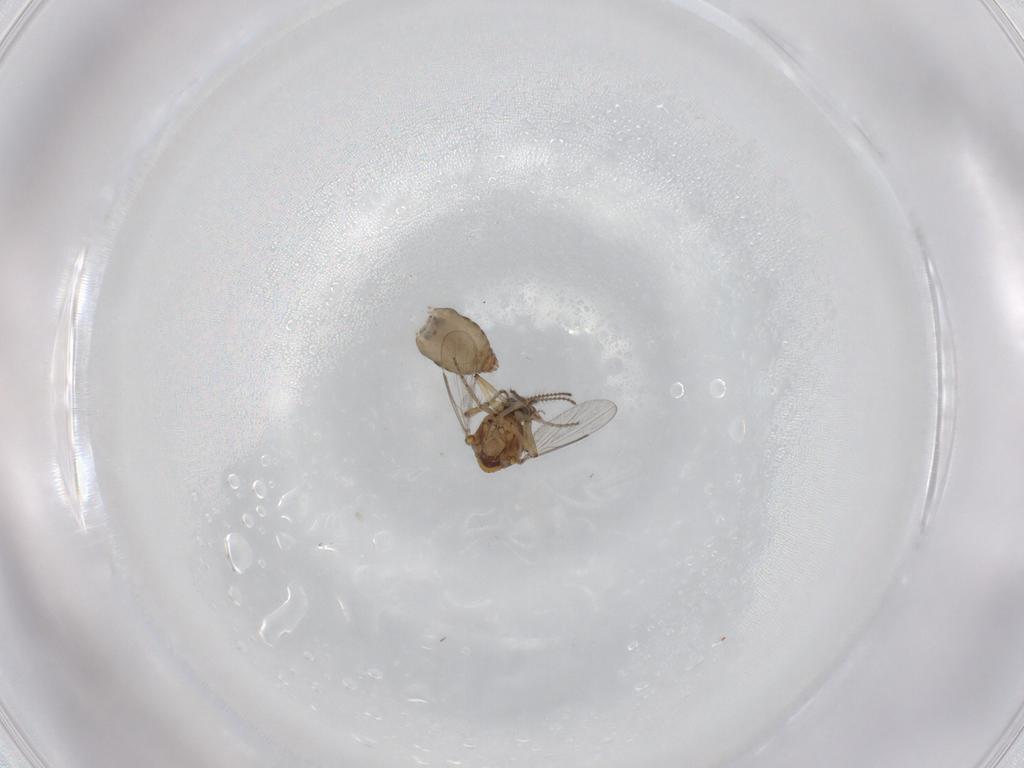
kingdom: Animalia
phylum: Arthropoda
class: Insecta
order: Diptera
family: Ceratopogonidae
